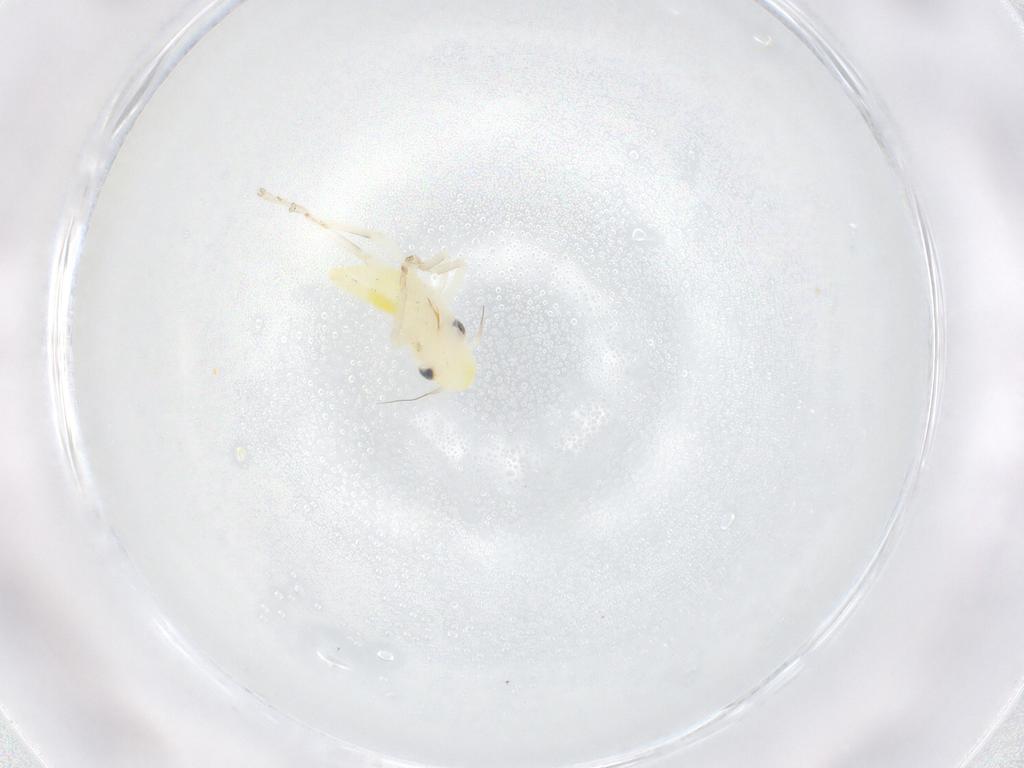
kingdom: Animalia
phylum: Arthropoda
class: Insecta
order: Hemiptera
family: Cicadellidae
